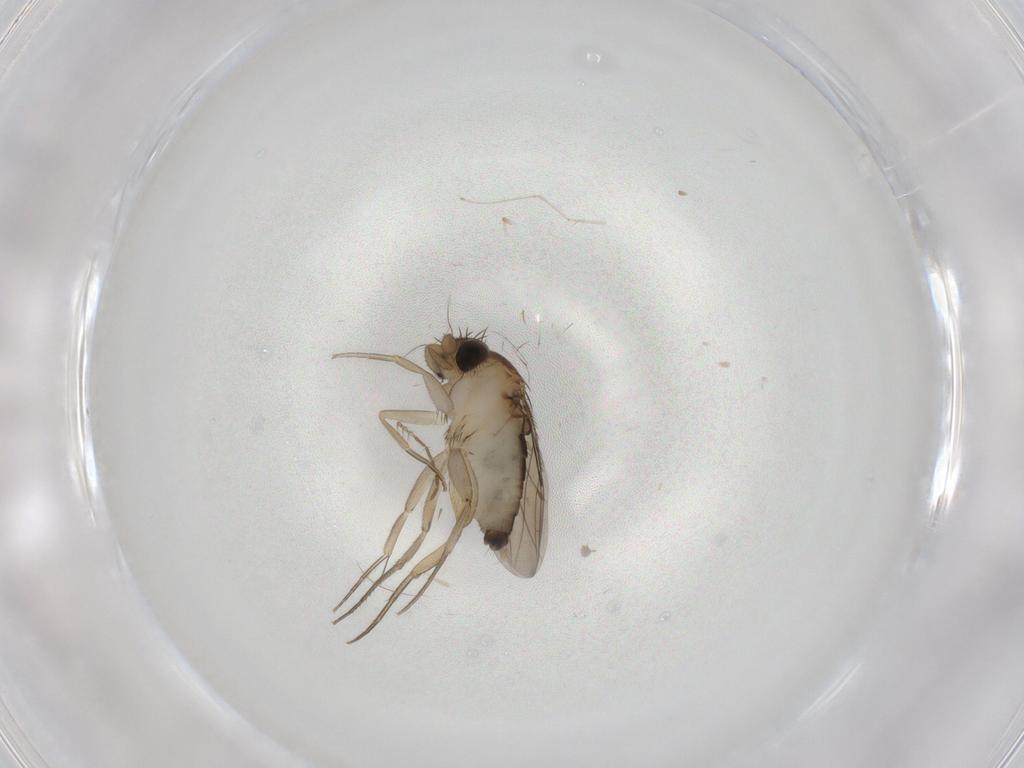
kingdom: Animalia
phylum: Arthropoda
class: Insecta
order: Diptera
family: Phoridae
